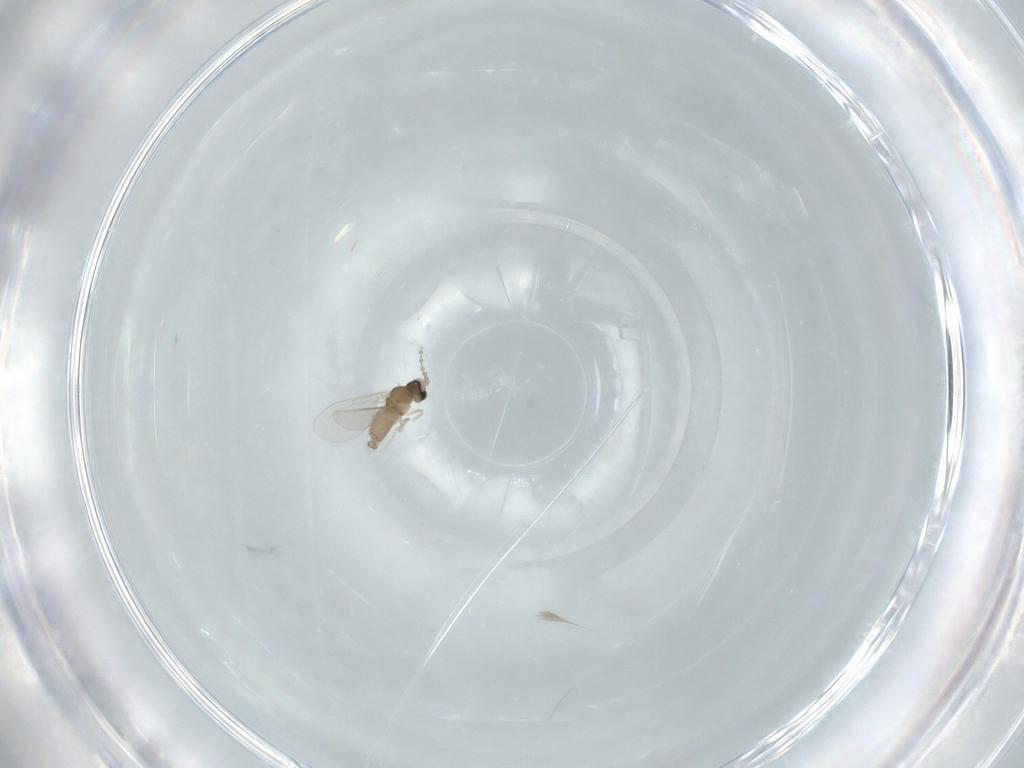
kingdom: Animalia
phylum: Arthropoda
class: Insecta
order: Diptera
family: Cecidomyiidae
